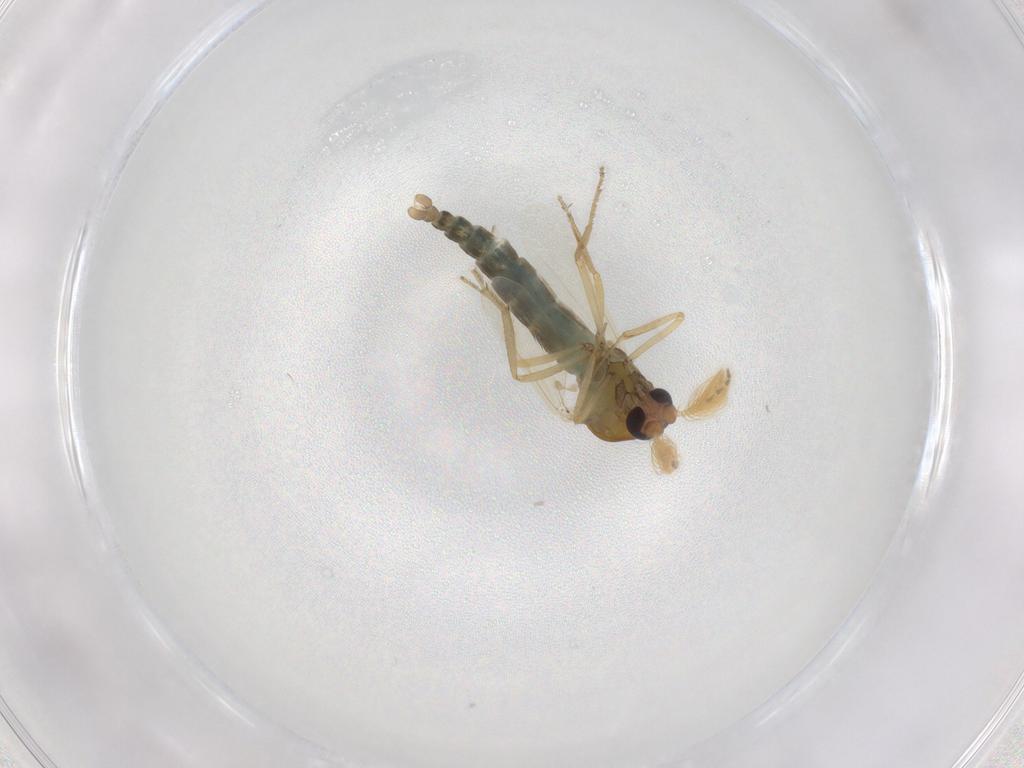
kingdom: Animalia
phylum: Arthropoda
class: Insecta
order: Diptera
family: Ceratopogonidae
